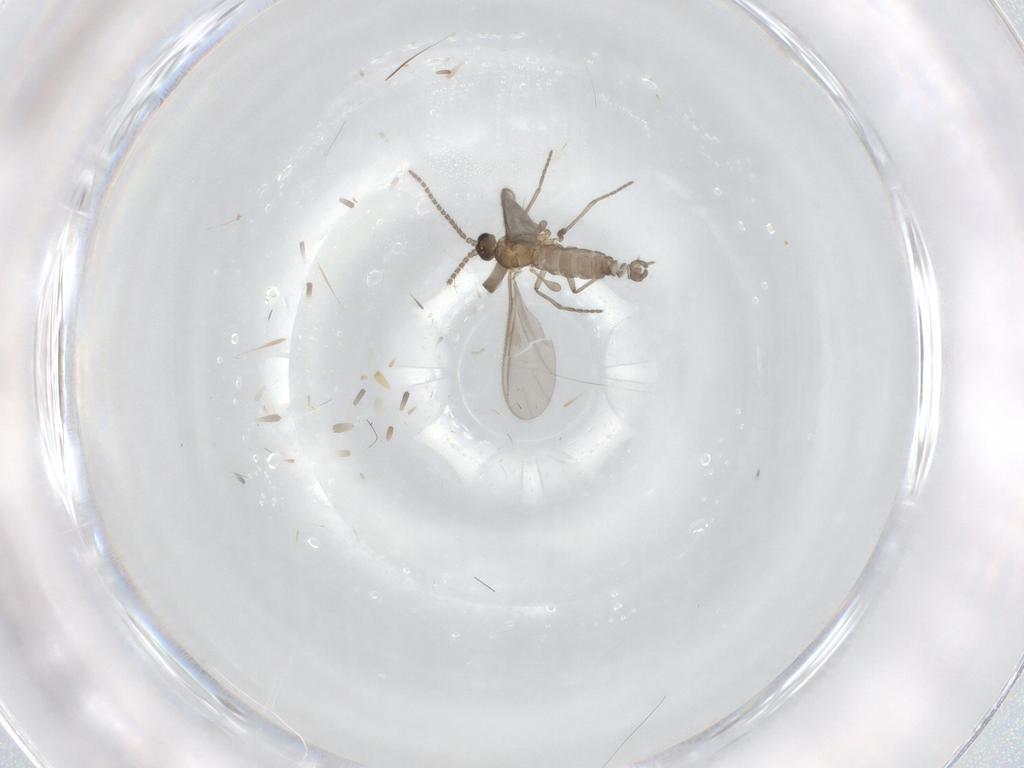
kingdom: Animalia
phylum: Arthropoda
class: Insecta
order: Diptera
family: Sciaridae
